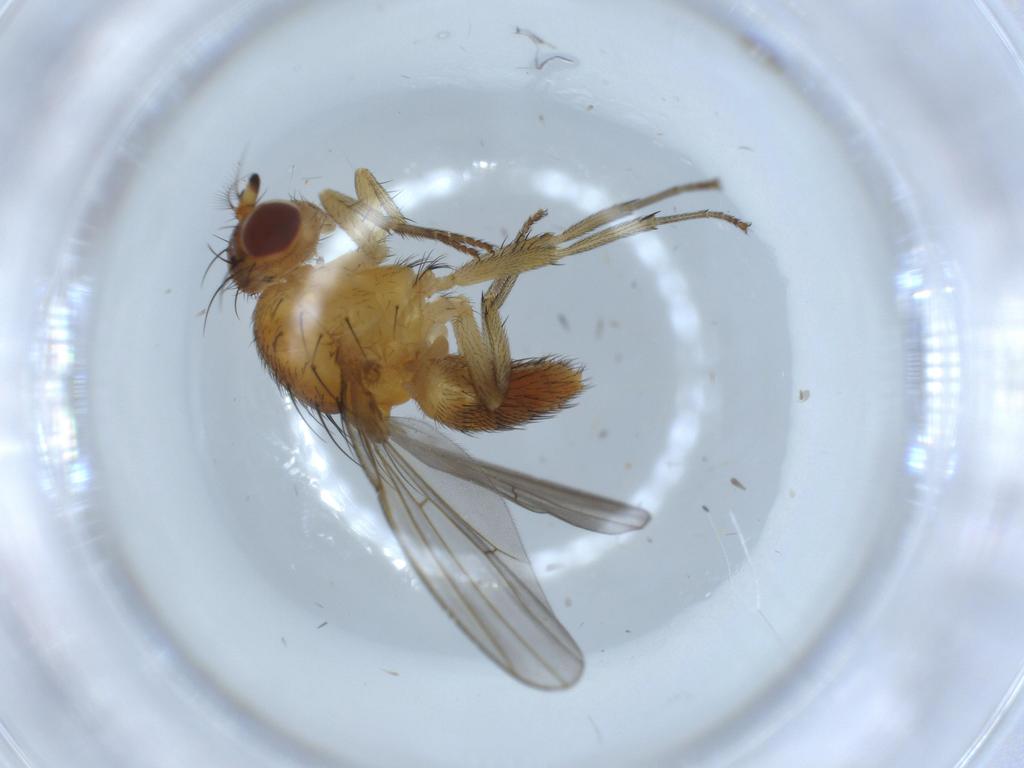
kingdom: Animalia
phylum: Arthropoda
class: Insecta
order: Diptera
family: Lauxaniidae
